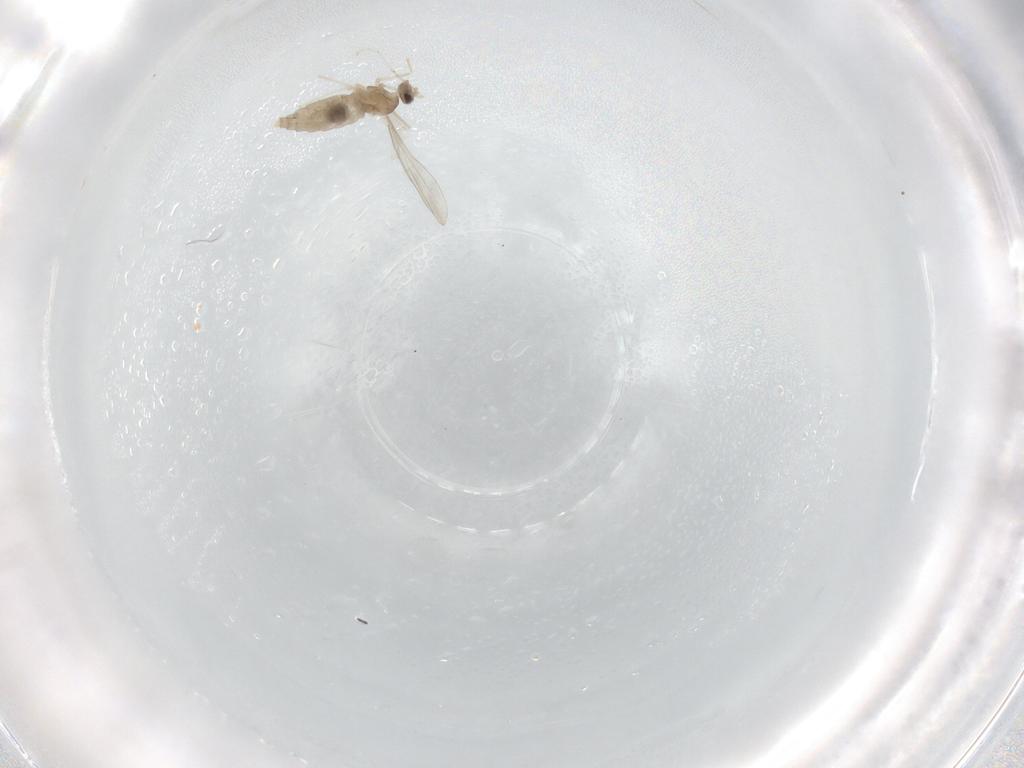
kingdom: Animalia
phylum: Arthropoda
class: Insecta
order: Diptera
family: Cecidomyiidae
